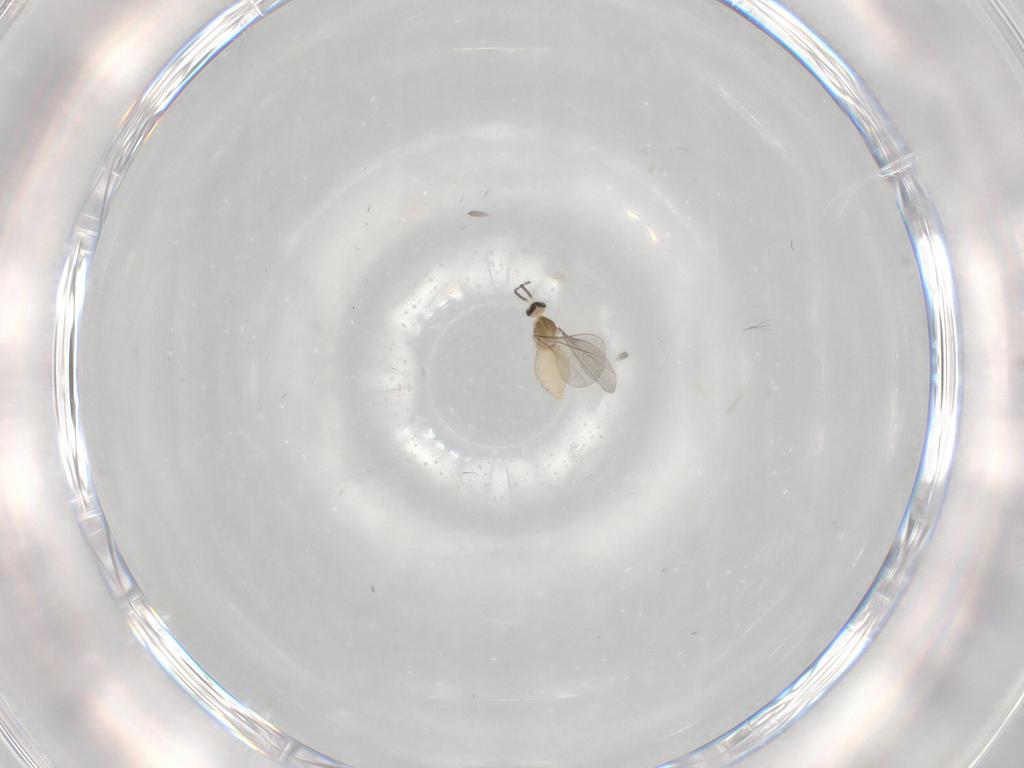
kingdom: Animalia
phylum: Arthropoda
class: Insecta
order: Diptera
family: Cecidomyiidae
